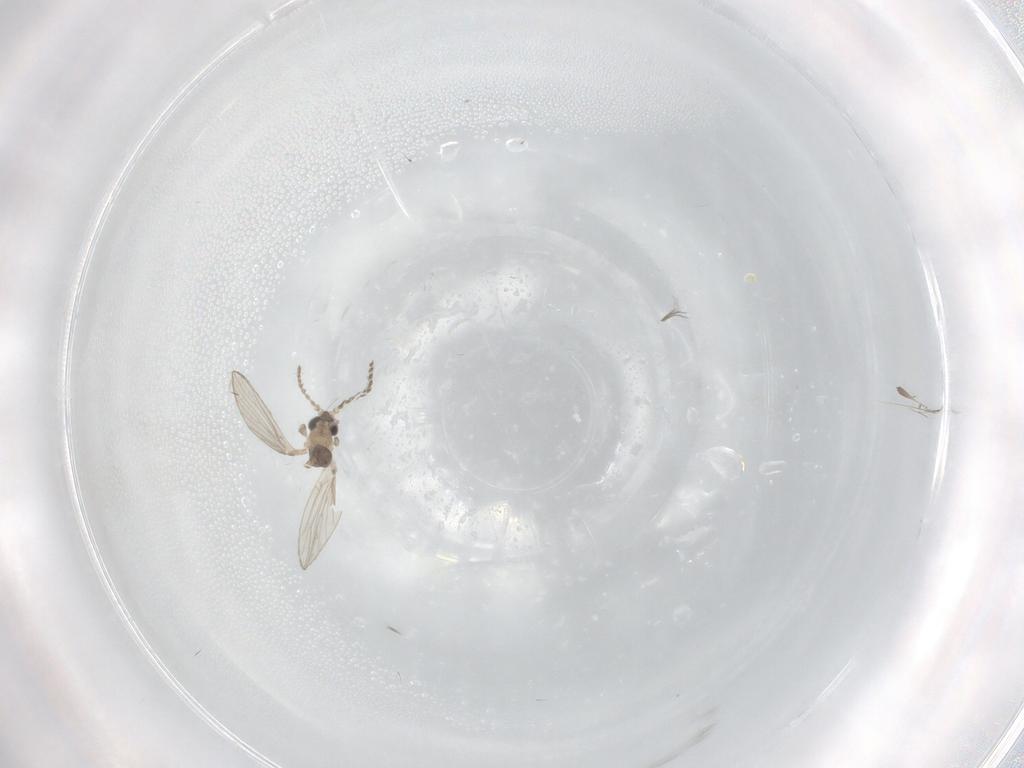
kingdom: Animalia
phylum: Arthropoda
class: Insecta
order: Diptera
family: Psychodidae
